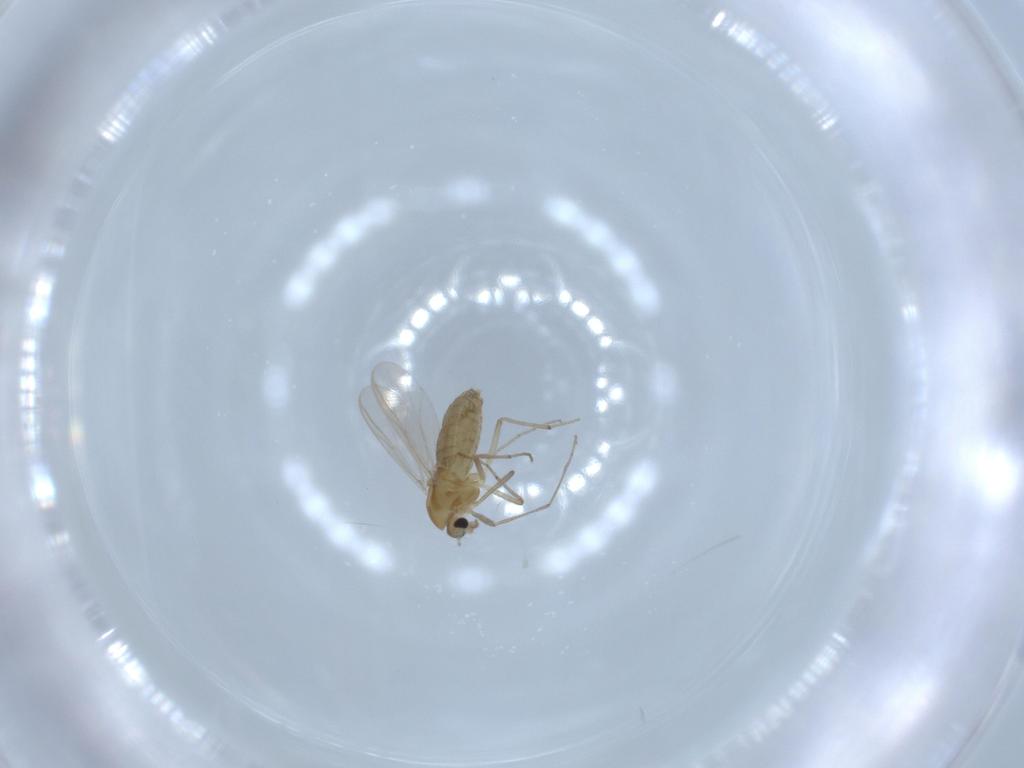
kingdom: Animalia
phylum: Arthropoda
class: Insecta
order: Diptera
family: Chironomidae
